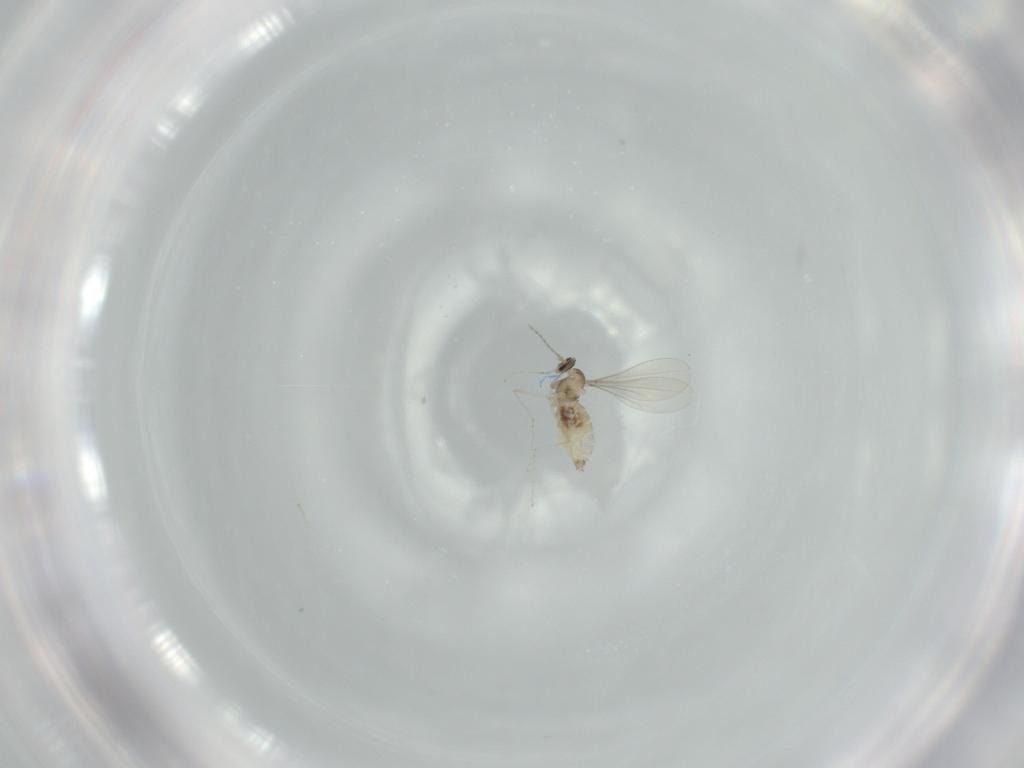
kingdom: Animalia
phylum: Arthropoda
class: Insecta
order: Diptera
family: Milichiidae
